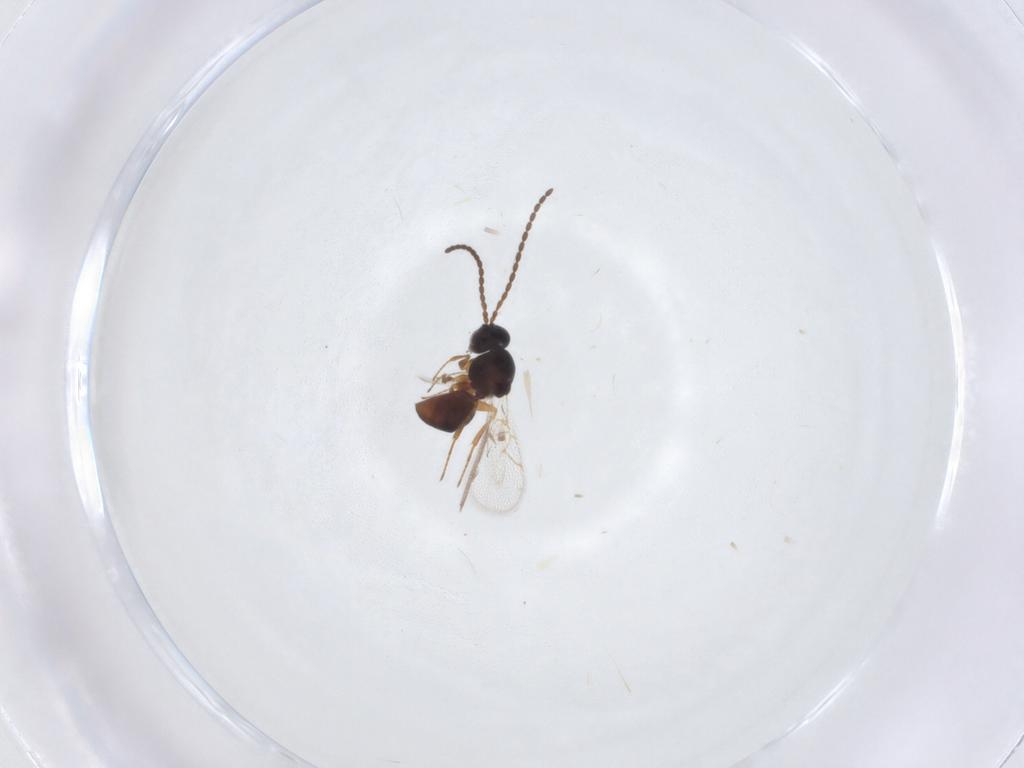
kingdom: Animalia
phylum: Arthropoda
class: Insecta
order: Hymenoptera
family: Figitidae
